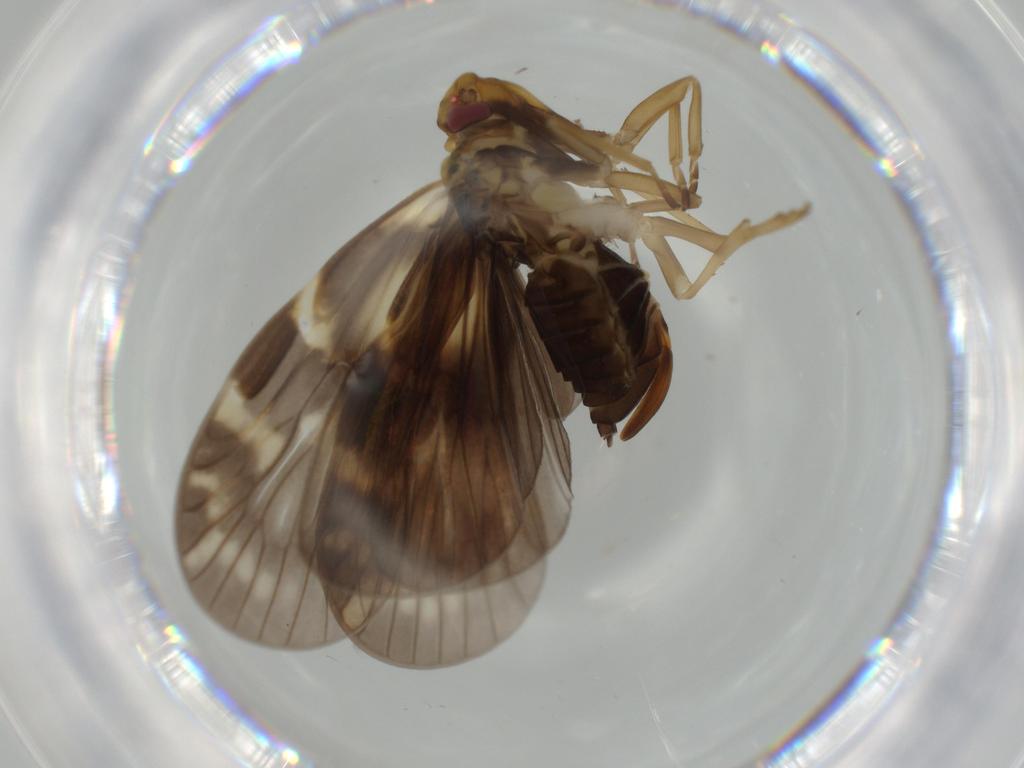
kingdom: Animalia
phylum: Arthropoda
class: Insecta
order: Hemiptera
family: Cixiidae
